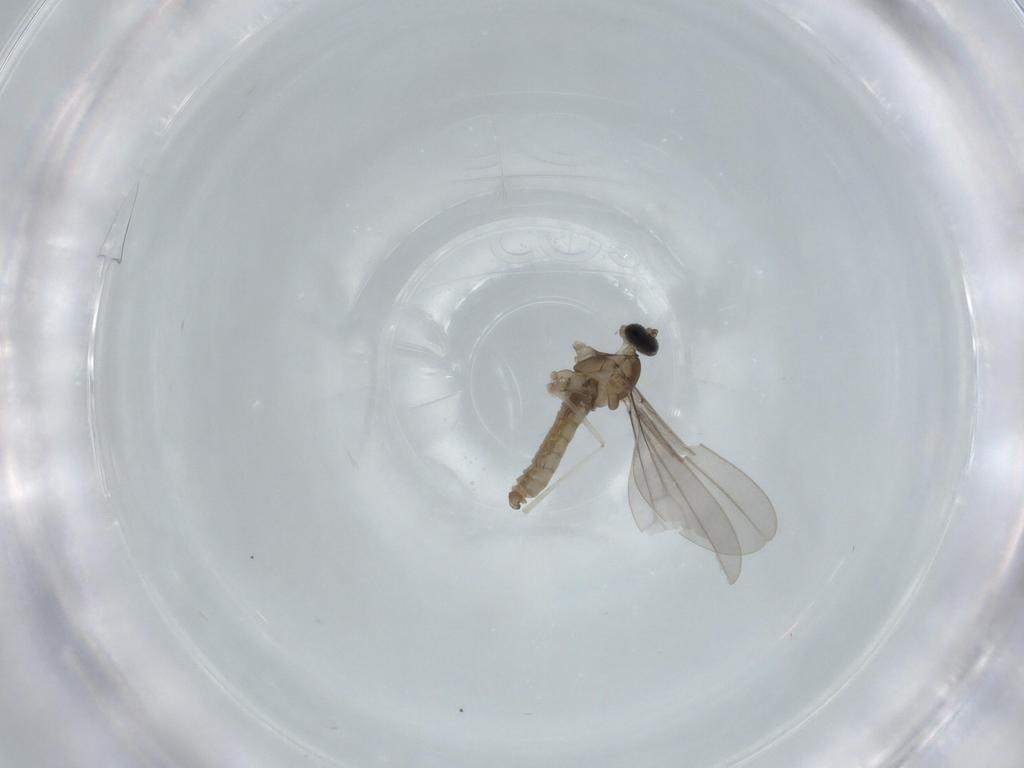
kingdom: Animalia
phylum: Arthropoda
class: Insecta
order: Diptera
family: Cecidomyiidae
